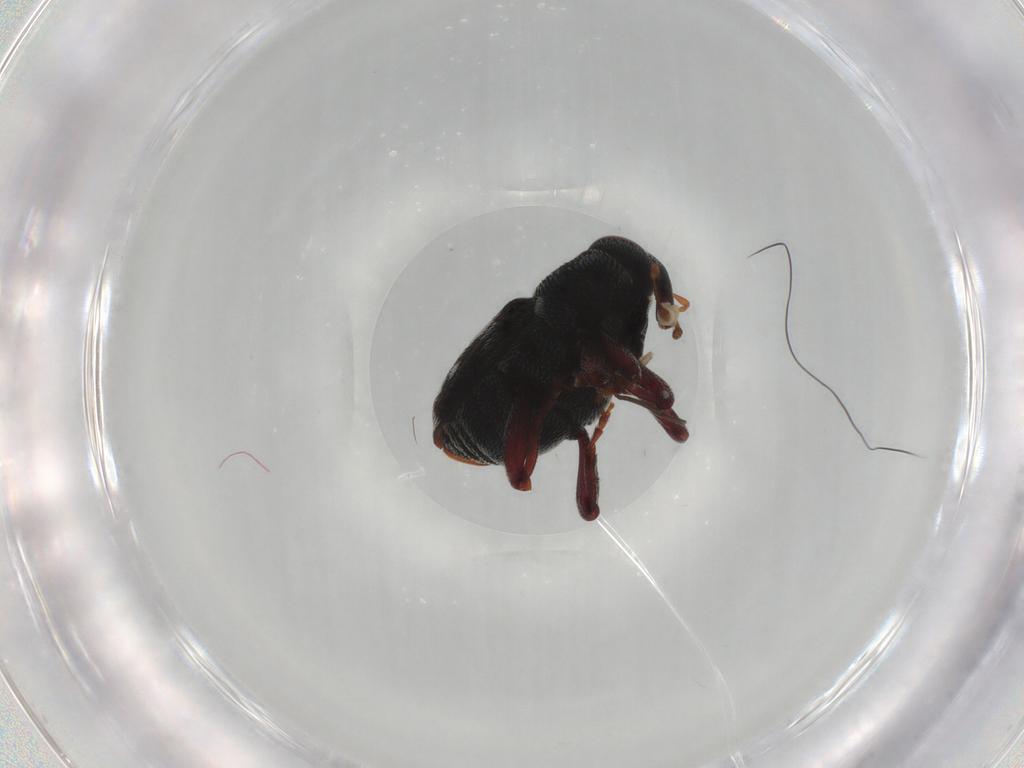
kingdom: Animalia
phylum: Arthropoda
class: Insecta
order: Coleoptera
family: Curculionidae
